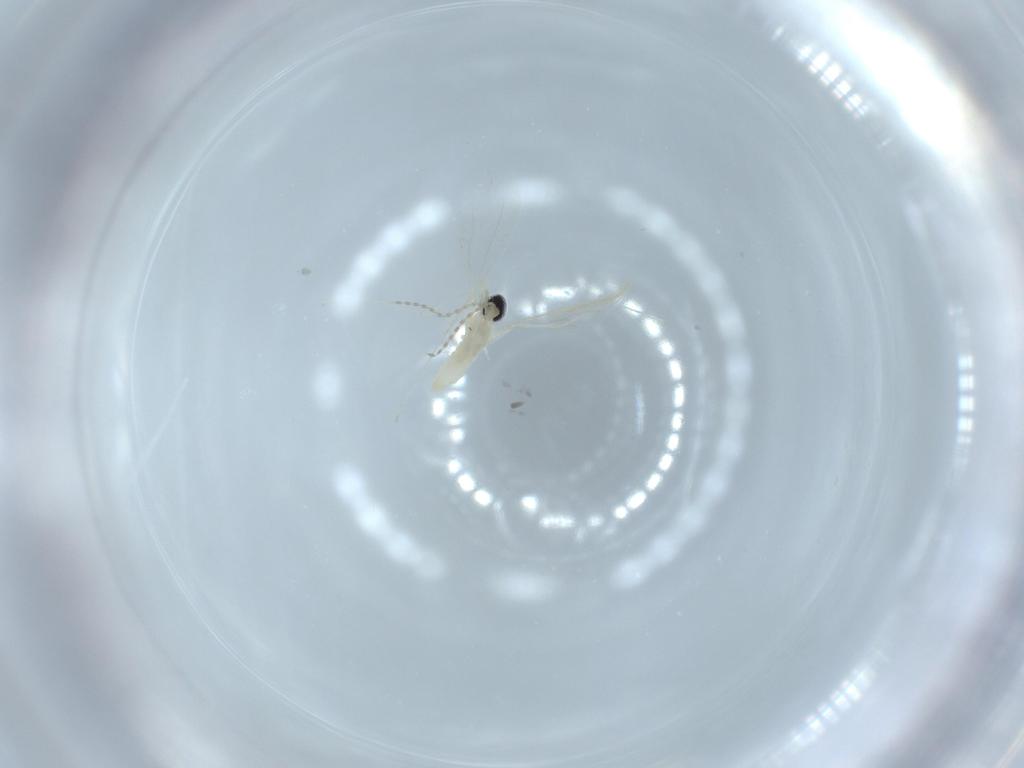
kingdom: Animalia
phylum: Arthropoda
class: Insecta
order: Diptera
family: Cecidomyiidae
